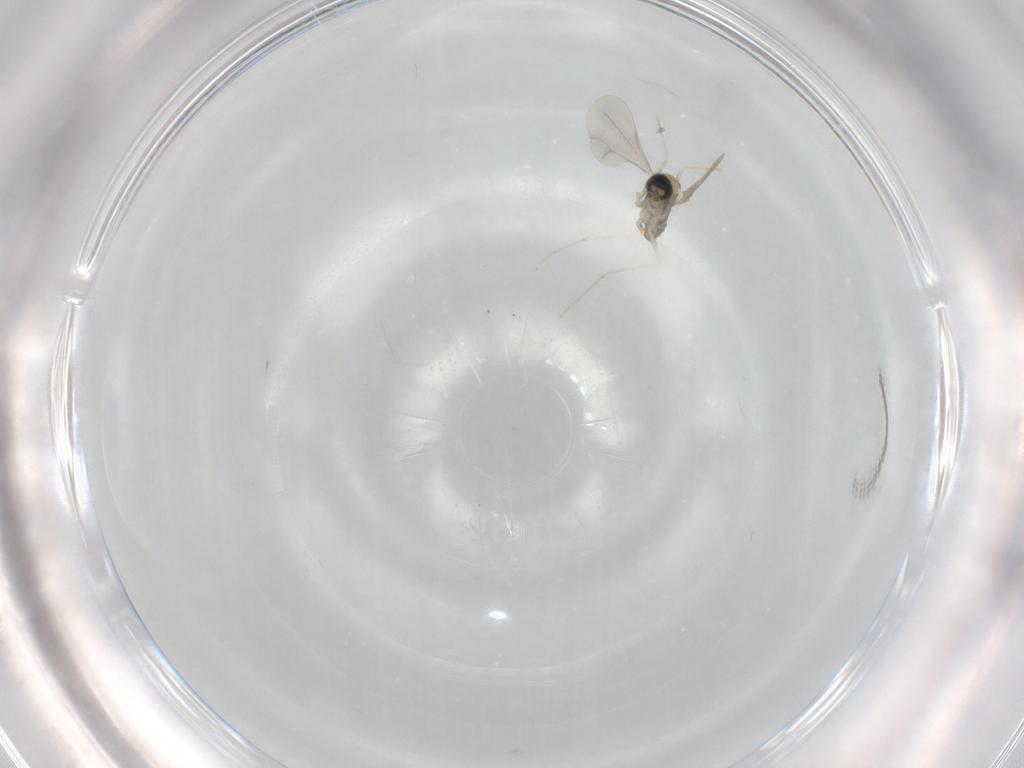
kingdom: Animalia
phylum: Arthropoda
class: Insecta
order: Diptera
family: Cecidomyiidae
